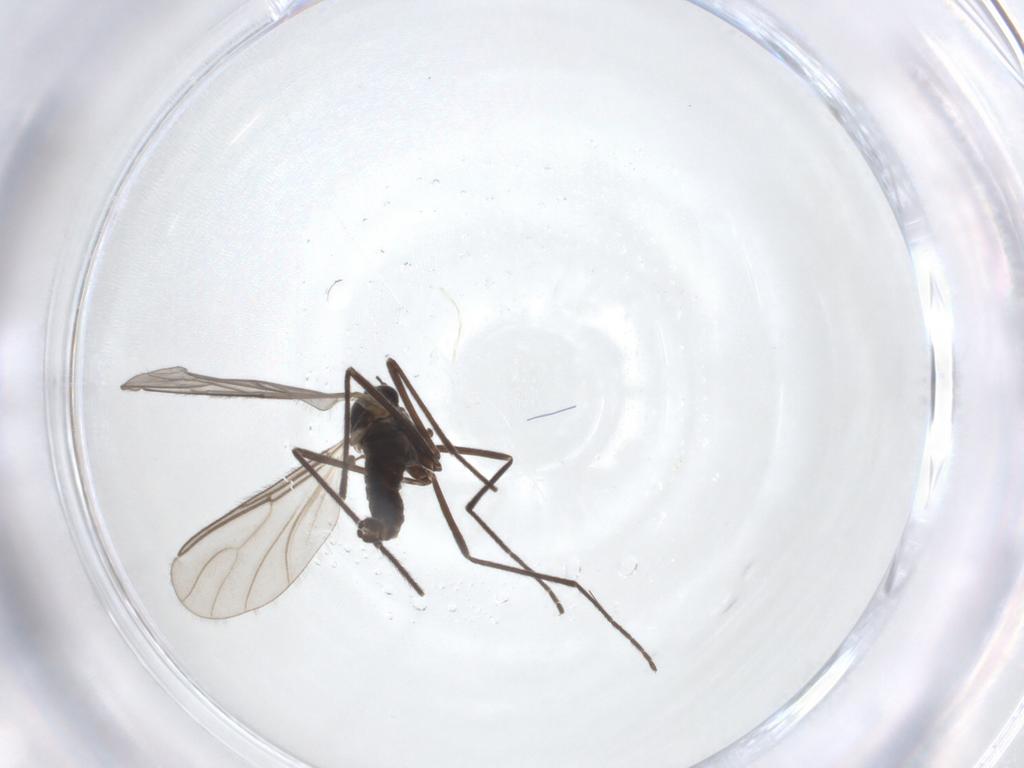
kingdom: Animalia
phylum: Arthropoda
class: Insecta
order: Diptera
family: Cecidomyiidae
